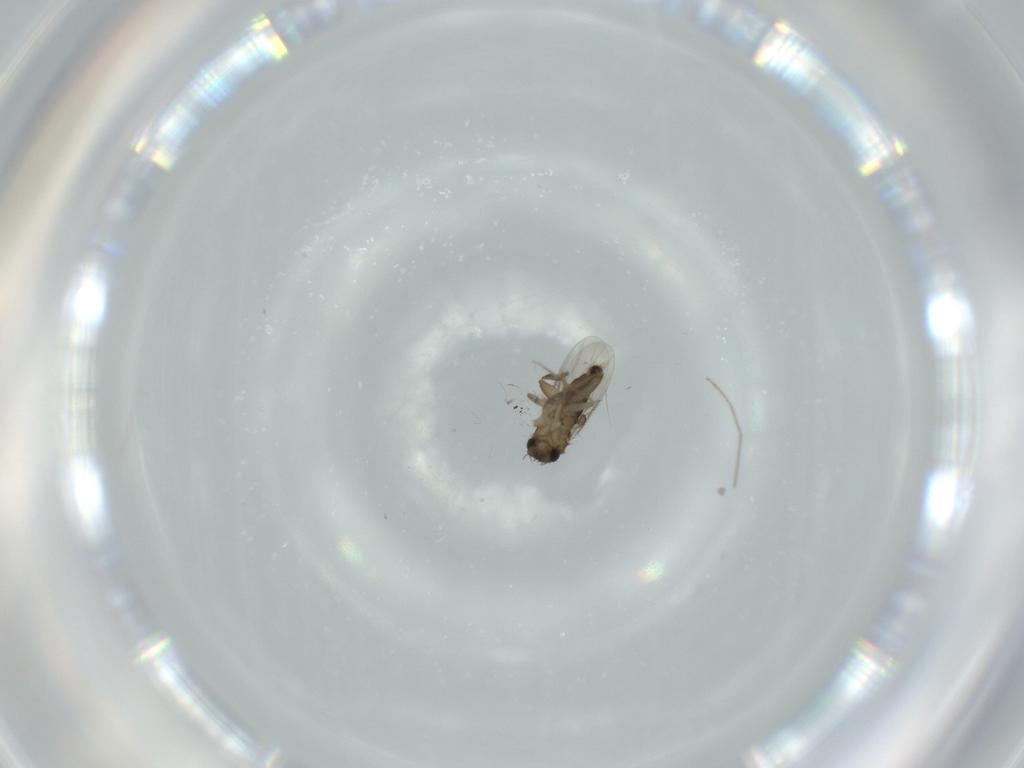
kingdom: Animalia
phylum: Arthropoda
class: Insecta
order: Diptera
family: Phoridae
